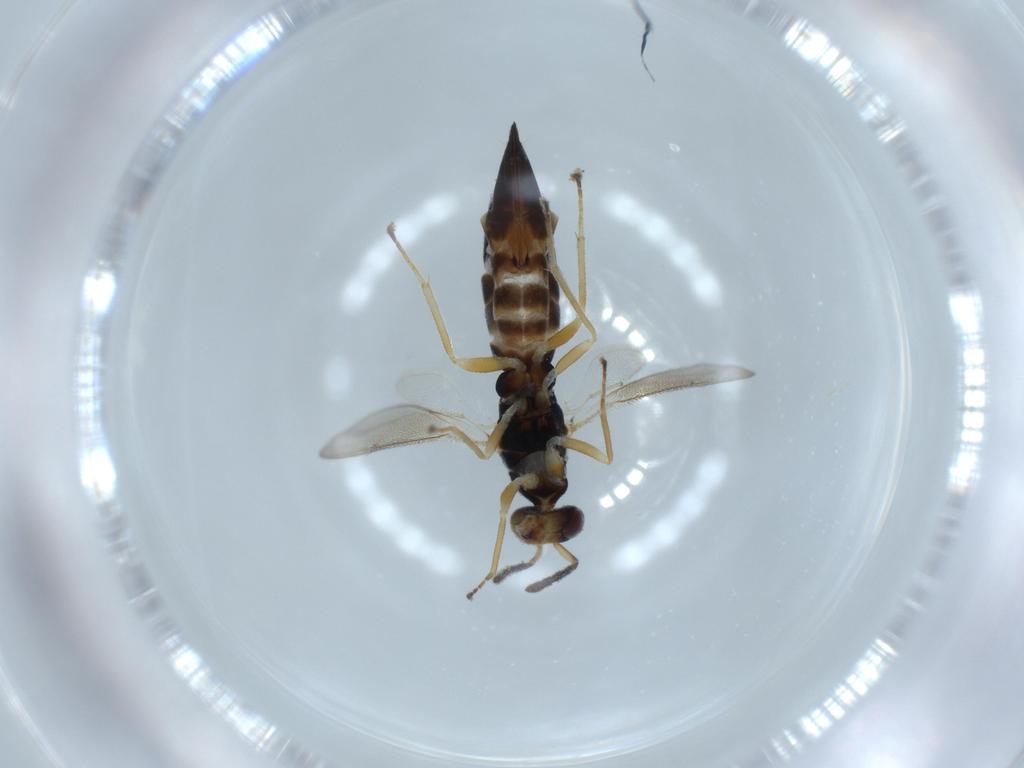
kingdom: Animalia
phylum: Arthropoda
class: Insecta
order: Hymenoptera
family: Eulophidae
